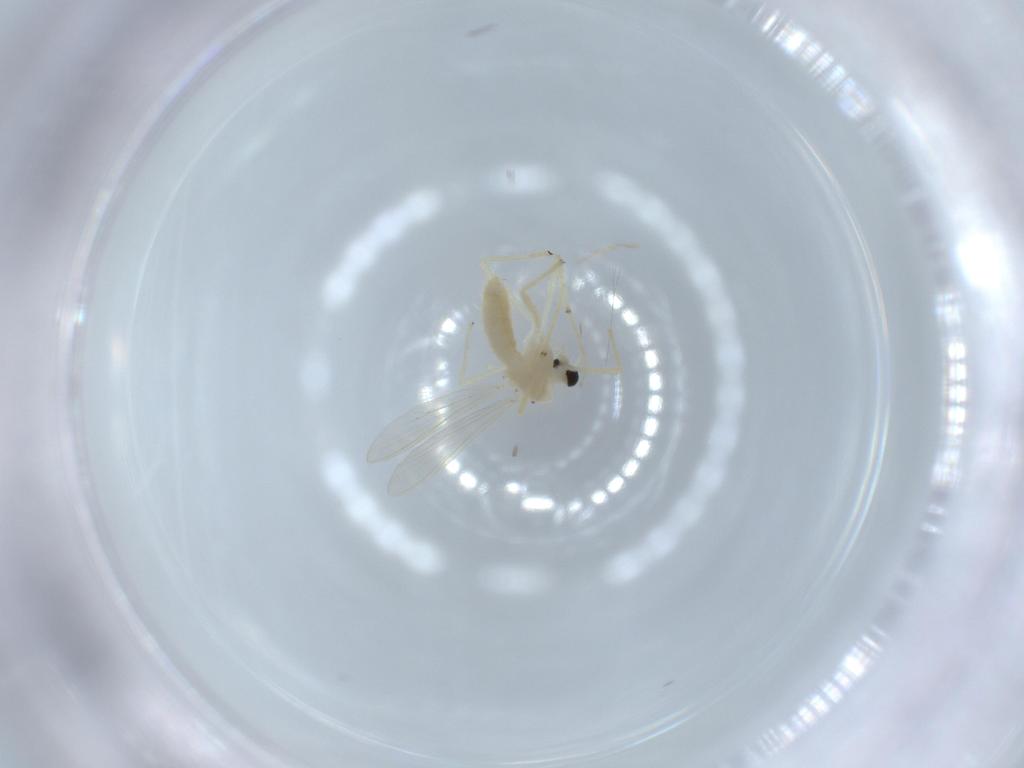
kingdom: Animalia
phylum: Arthropoda
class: Insecta
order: Diptera
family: Chironomidae
